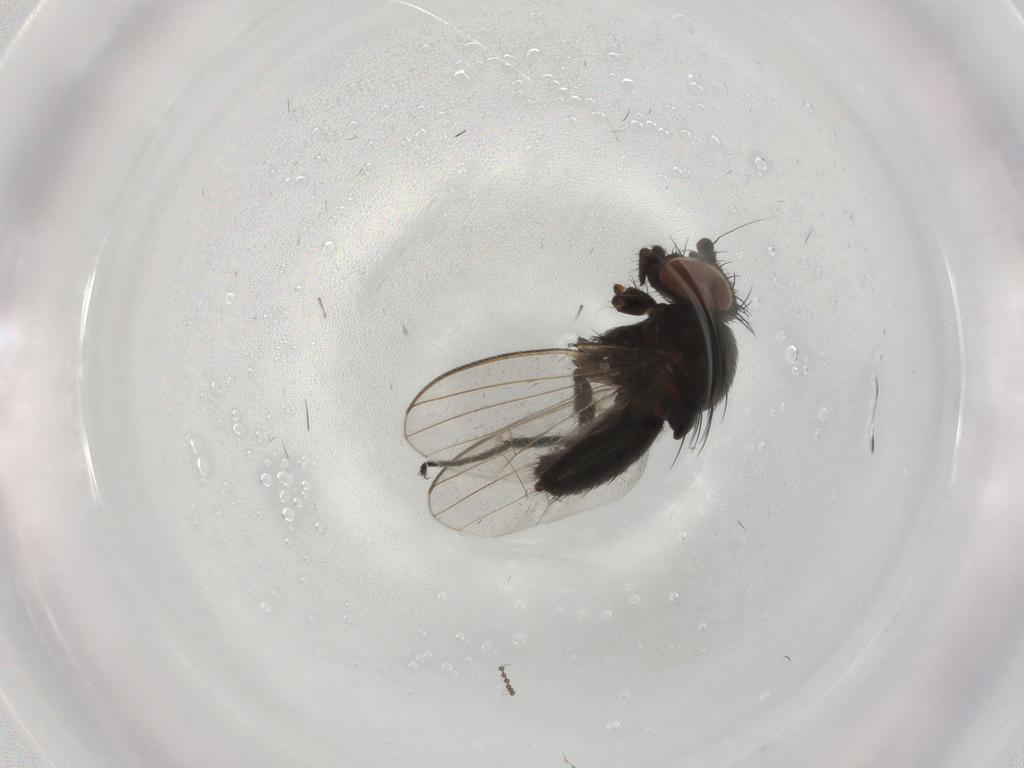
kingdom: Animalia
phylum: Arthropoda
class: Insecta
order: Diptera
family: Milichiidae
